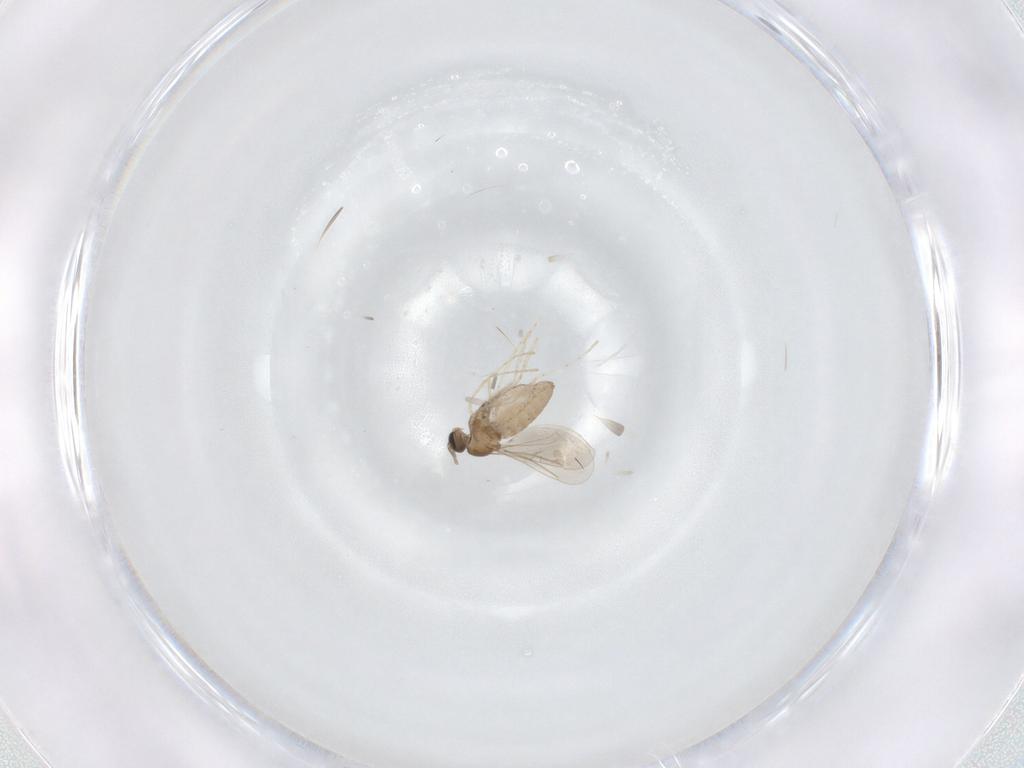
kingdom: Animalia
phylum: Arthropoda
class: Insecta
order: Diptera
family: Cecidomyiidae
